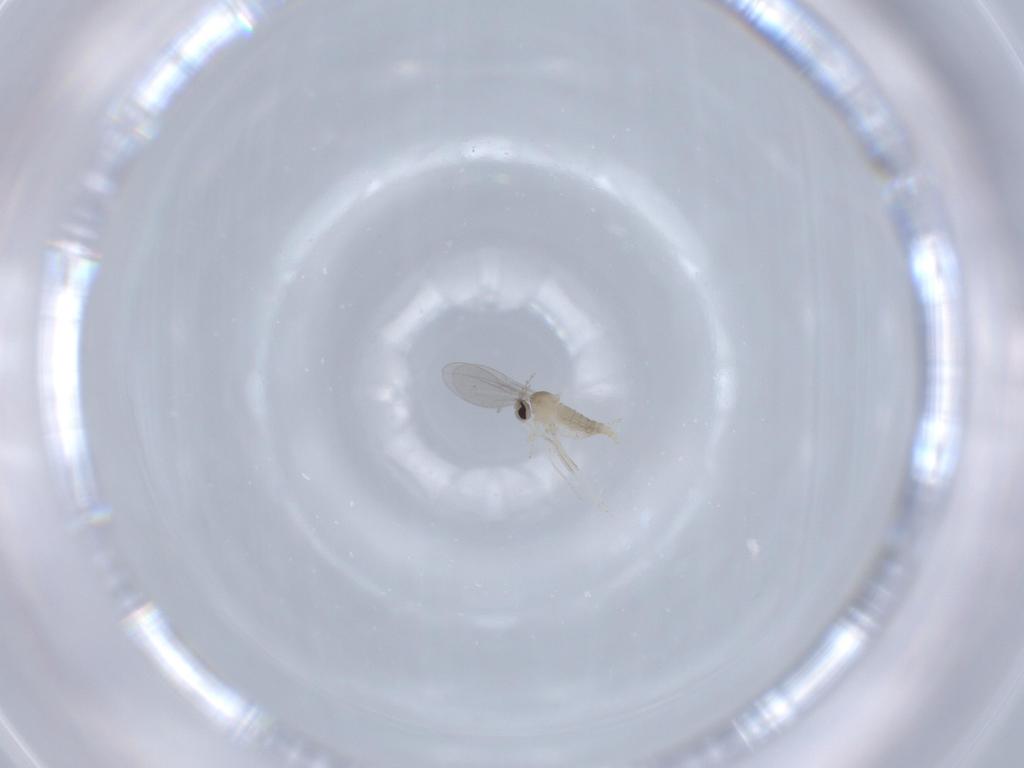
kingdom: Animalia
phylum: Arthropoda
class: Insecta
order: Diptera
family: Cecidomyiidae
